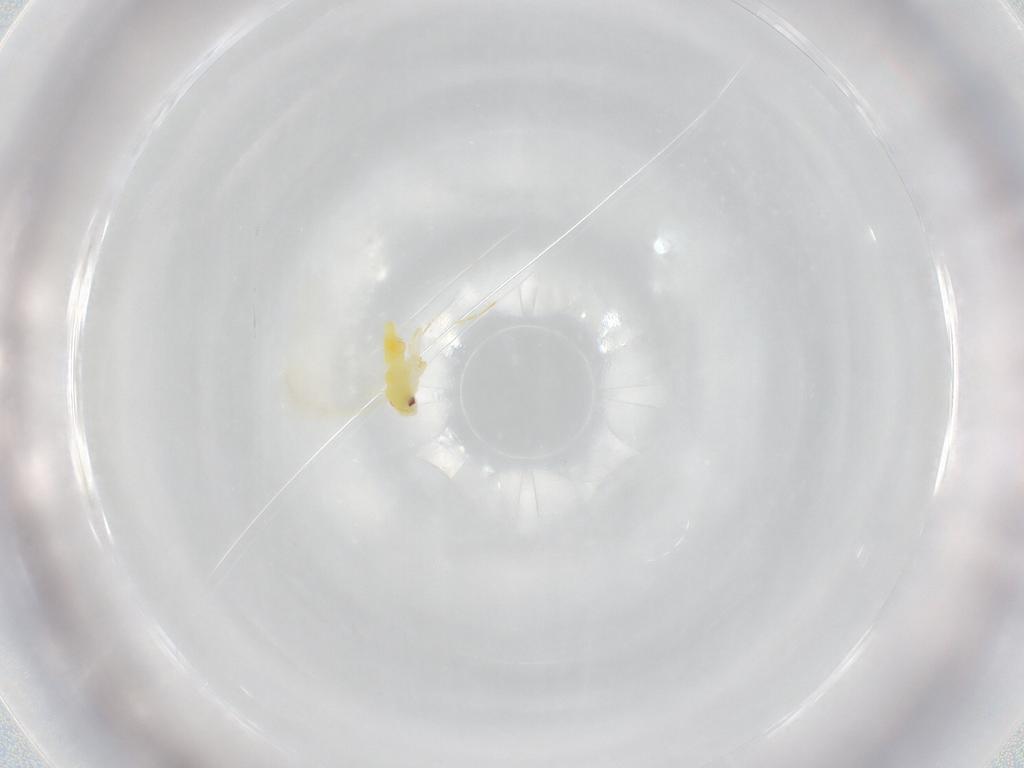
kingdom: Animalia
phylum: Arthropoda
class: Insecta
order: Hemiptera
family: Aleyrodidae
